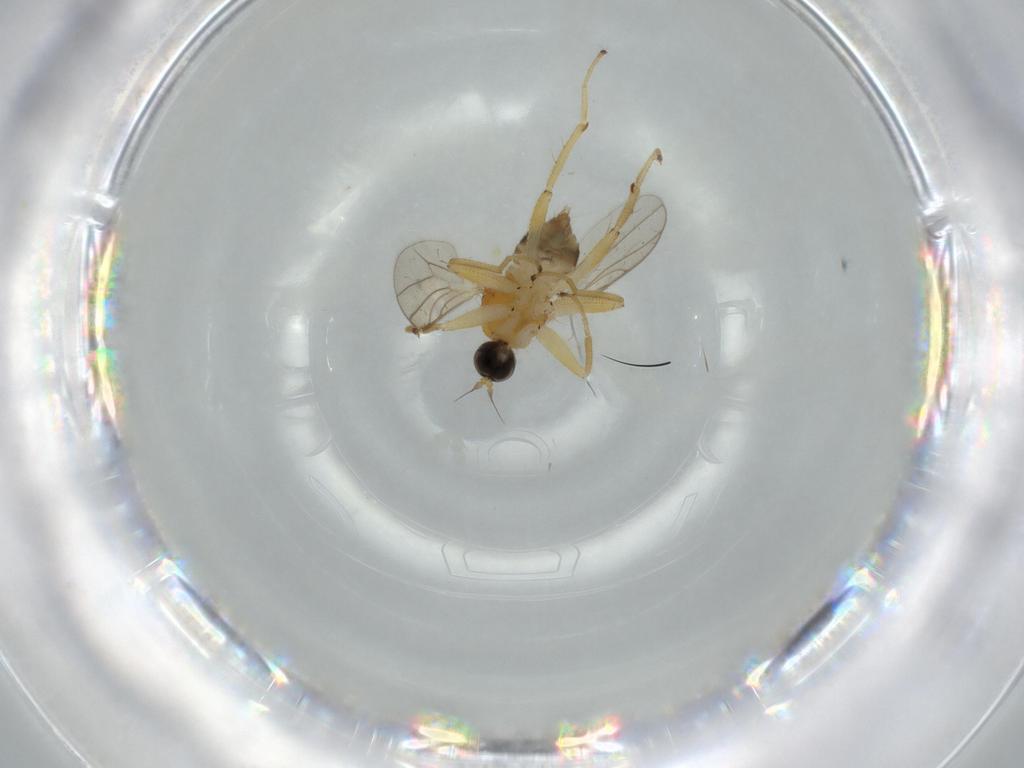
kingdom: Animalia
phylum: Arthropoda
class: Insecta
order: Diptera
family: Hybotidae
